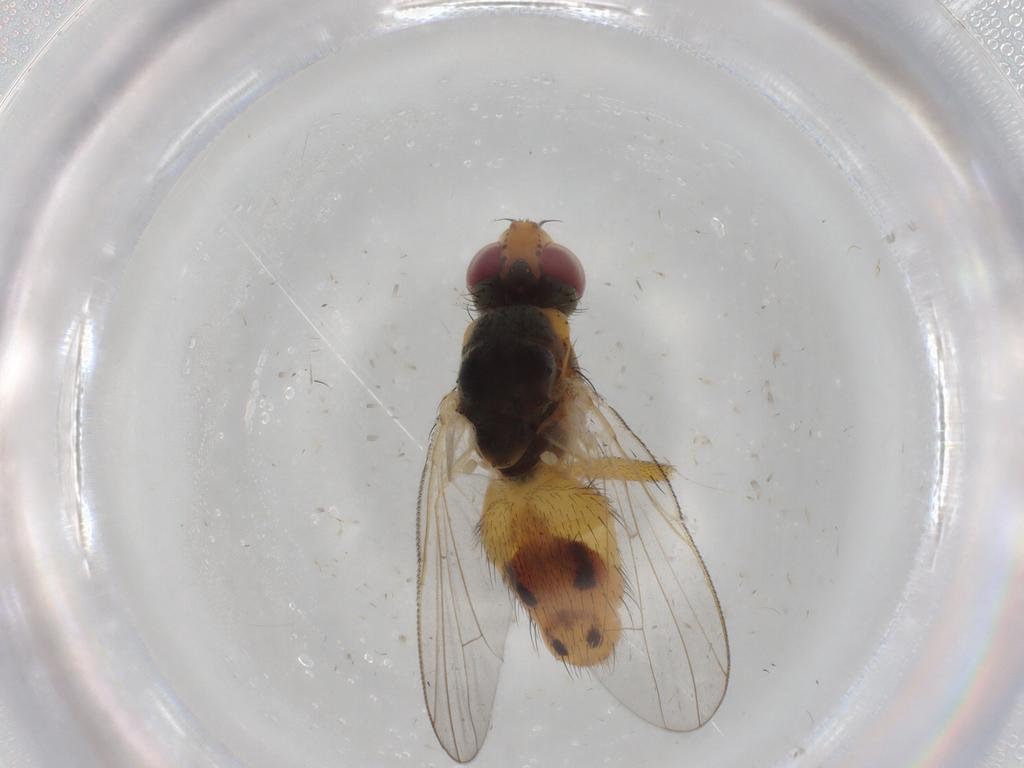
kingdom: Animalia
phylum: Arthropoda
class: Insecta
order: Diptera
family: Muscidae
